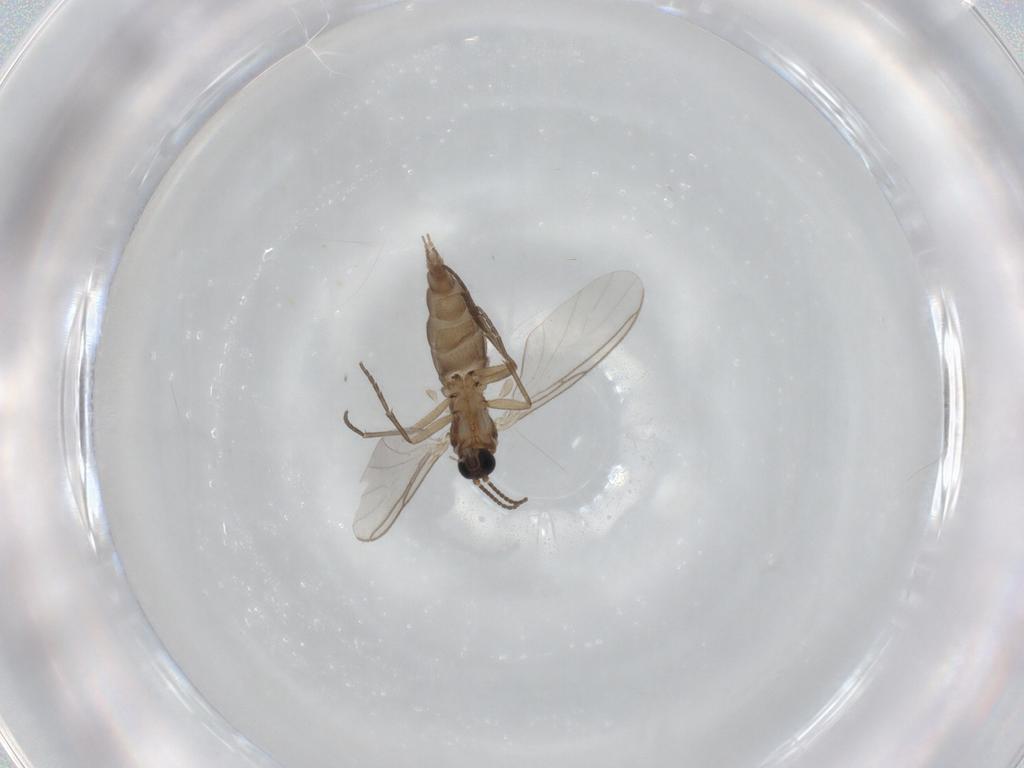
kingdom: Animalia
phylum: Arthropoda
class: Insecta
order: Diptera
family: Sciaridae
